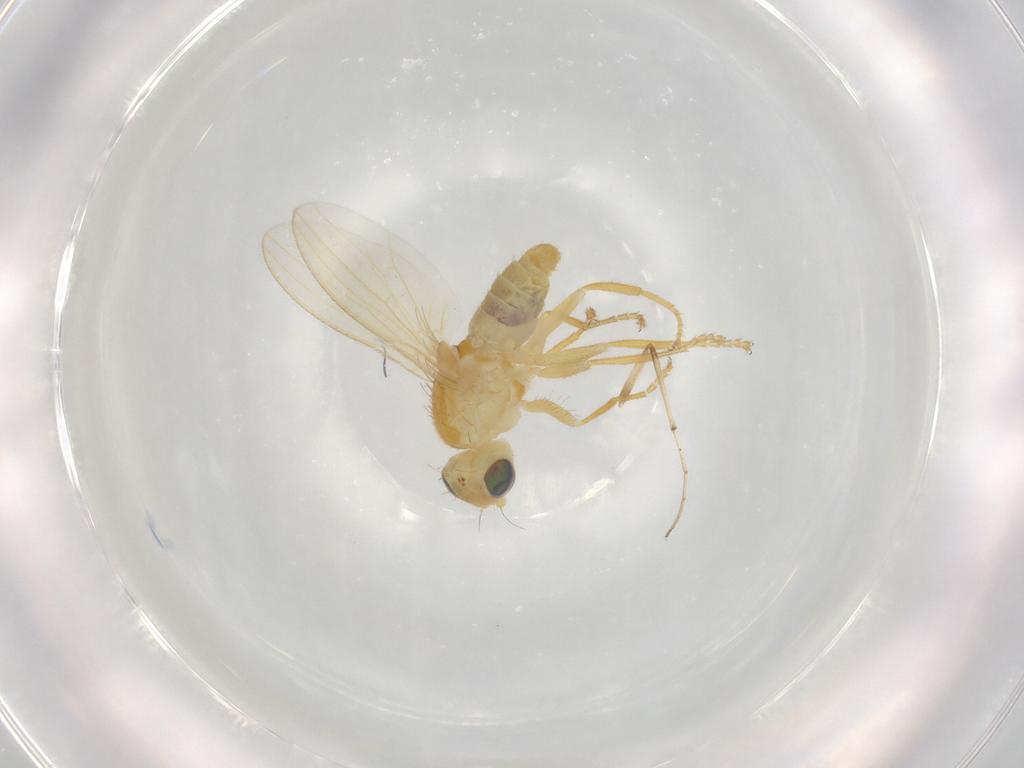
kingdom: Animalia
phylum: Arthropoda
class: Insecta
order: Diptera
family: Chyromyidae
